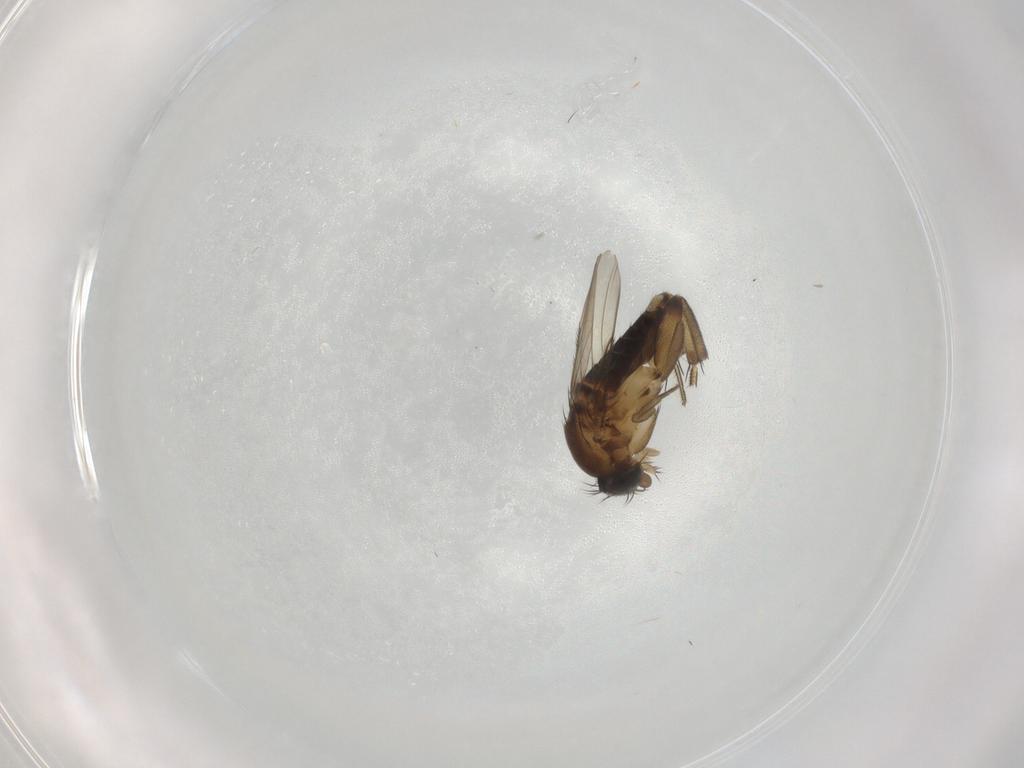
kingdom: Animalia
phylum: Arthropoda
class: Insecta
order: Diptera
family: Phoridae
